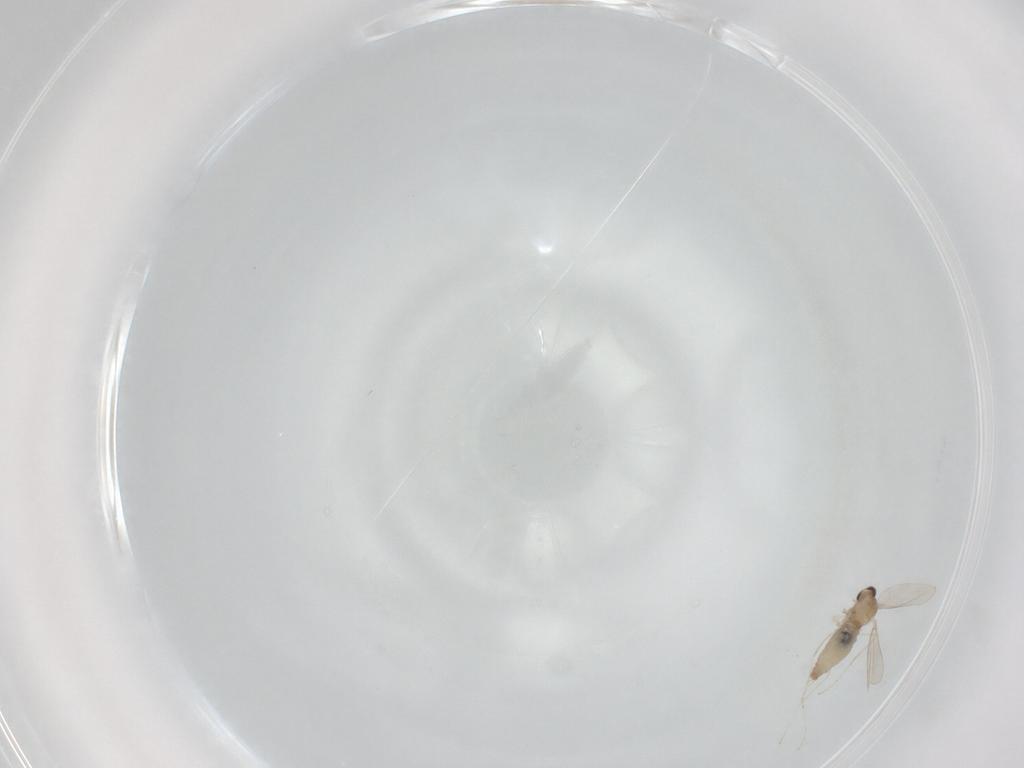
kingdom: Animalia
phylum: Arthropoda
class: Insecta
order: Diptera
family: Cecidomyiidae
